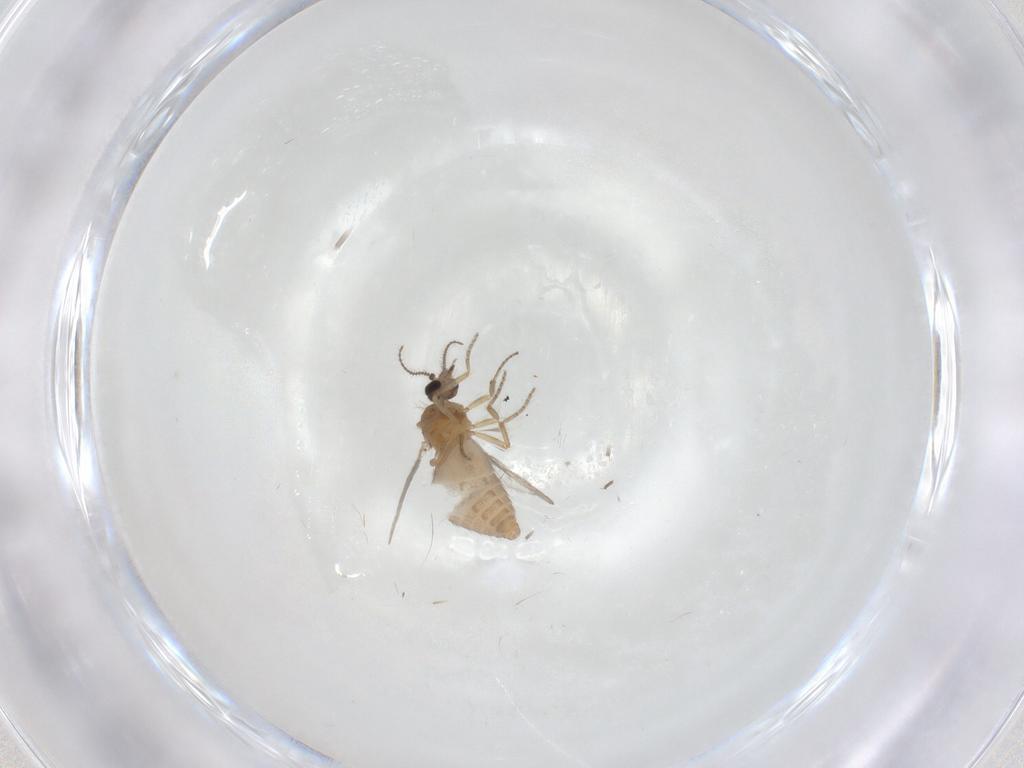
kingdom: Animalia
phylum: Arthropoda
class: Insecta
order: Diptera
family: Ceratopogonidae
